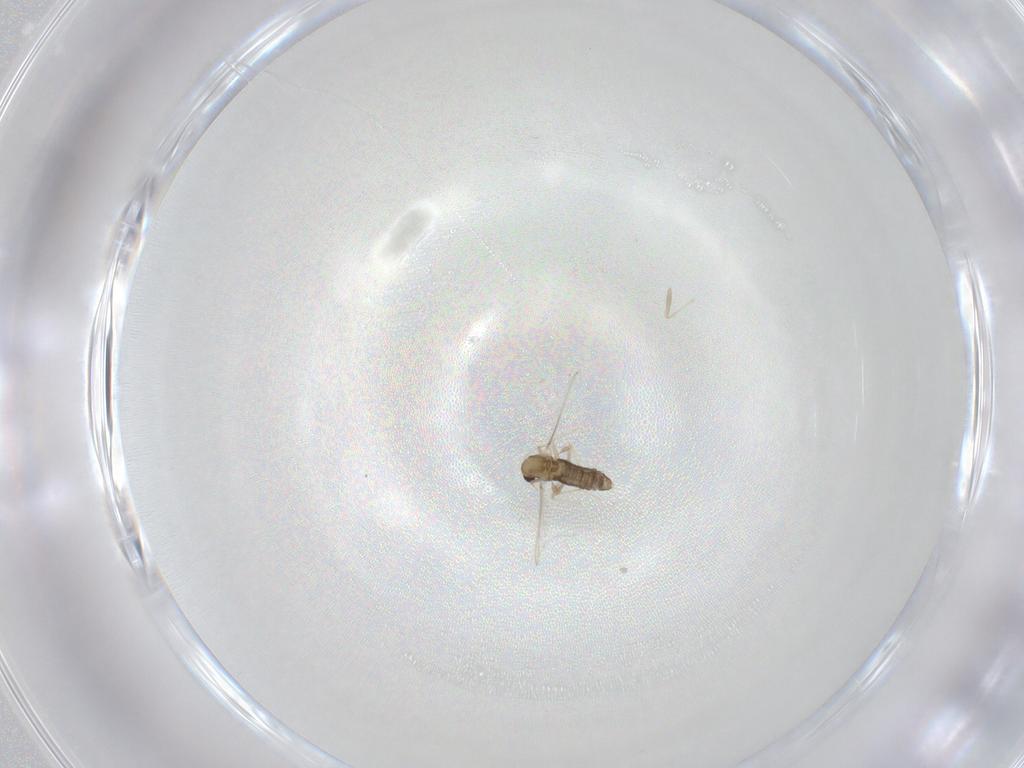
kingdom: Animalia
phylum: Arthropoda
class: Insecta
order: Diptera
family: Chironomidae
